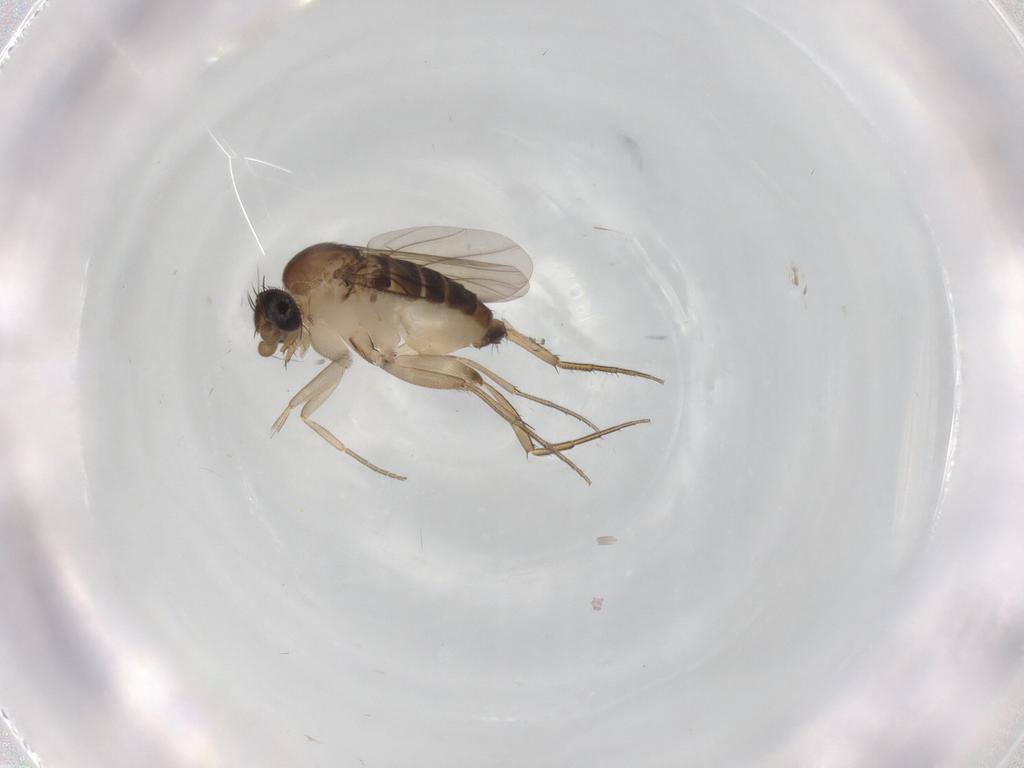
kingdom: Animalia
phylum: Arthropoda
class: Insecta
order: Diptera
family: Phoridae
